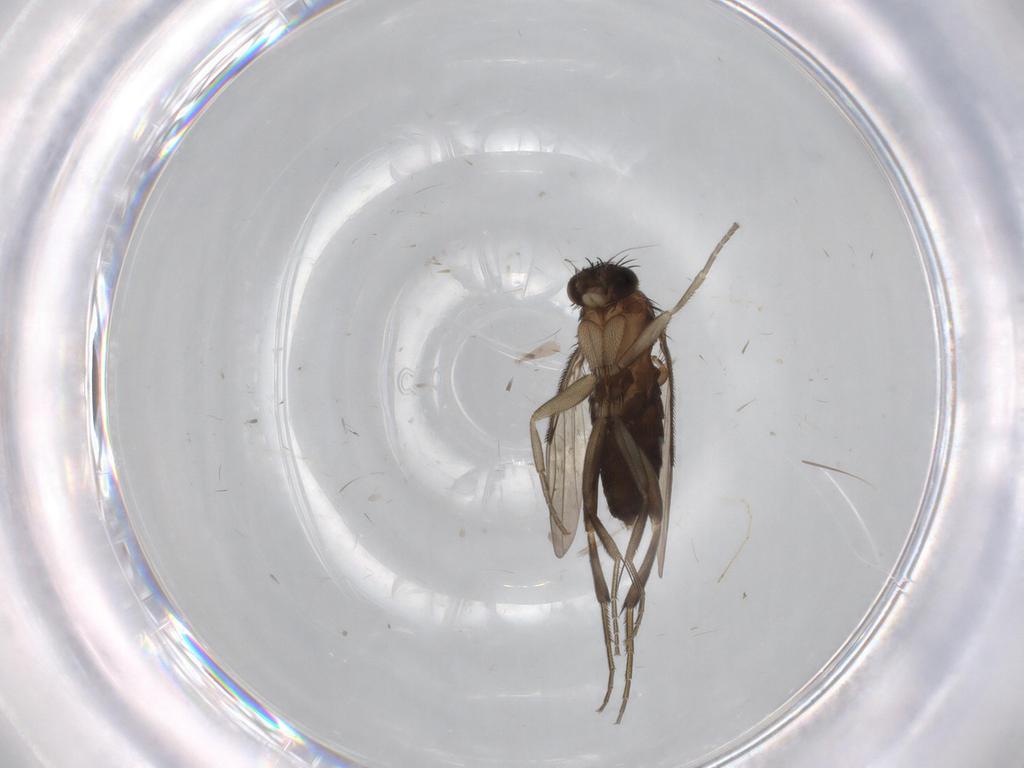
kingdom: Animalia
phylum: Arthropoda
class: Insecta
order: Diptera
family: Phoridae
